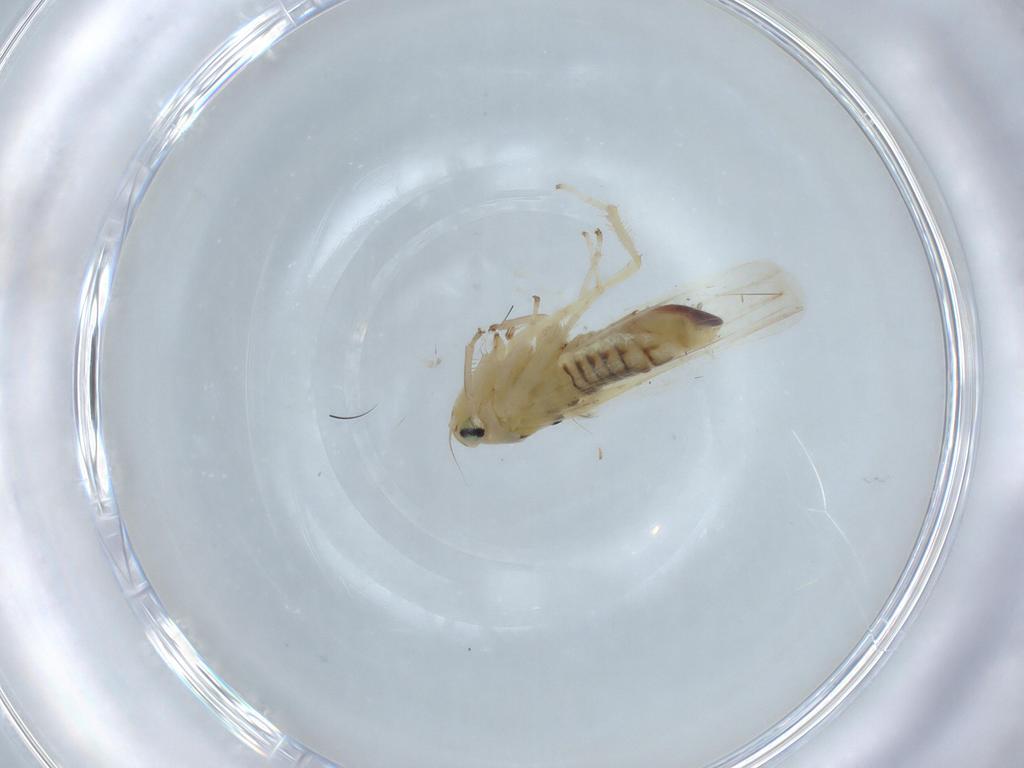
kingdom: Animalia
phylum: Arthropoda
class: Insecta
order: Hemiptera
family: Cicadellidae
